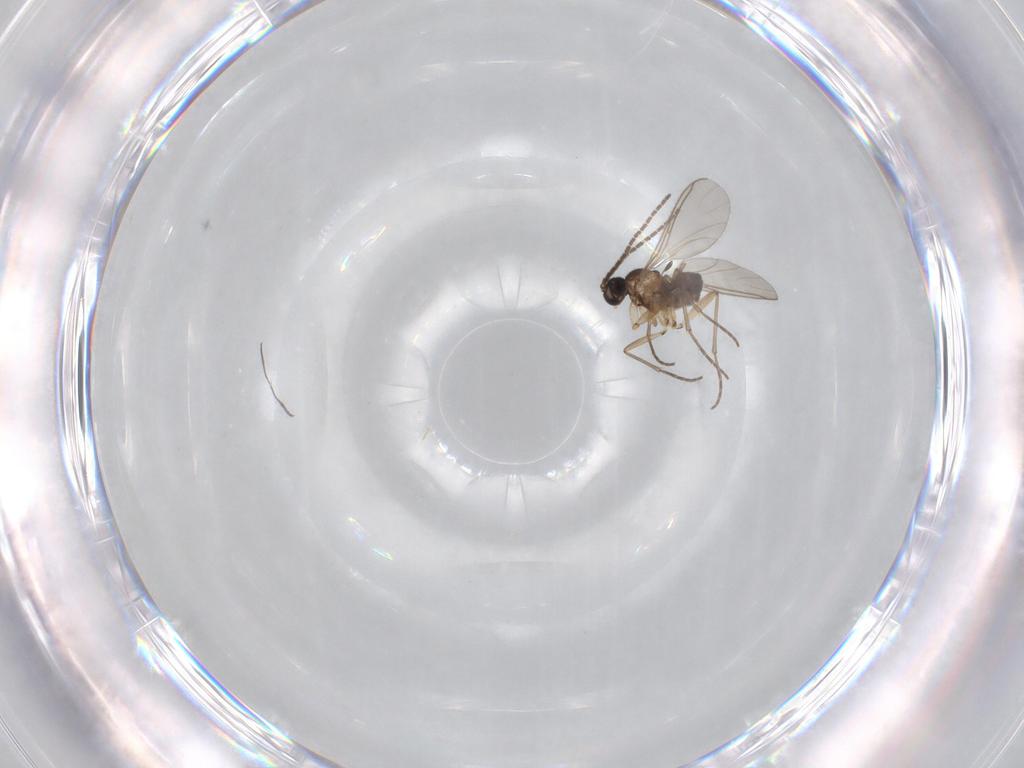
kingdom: Animalia
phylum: Arthropoda
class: Insecta
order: Diptera
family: Sciaridae
